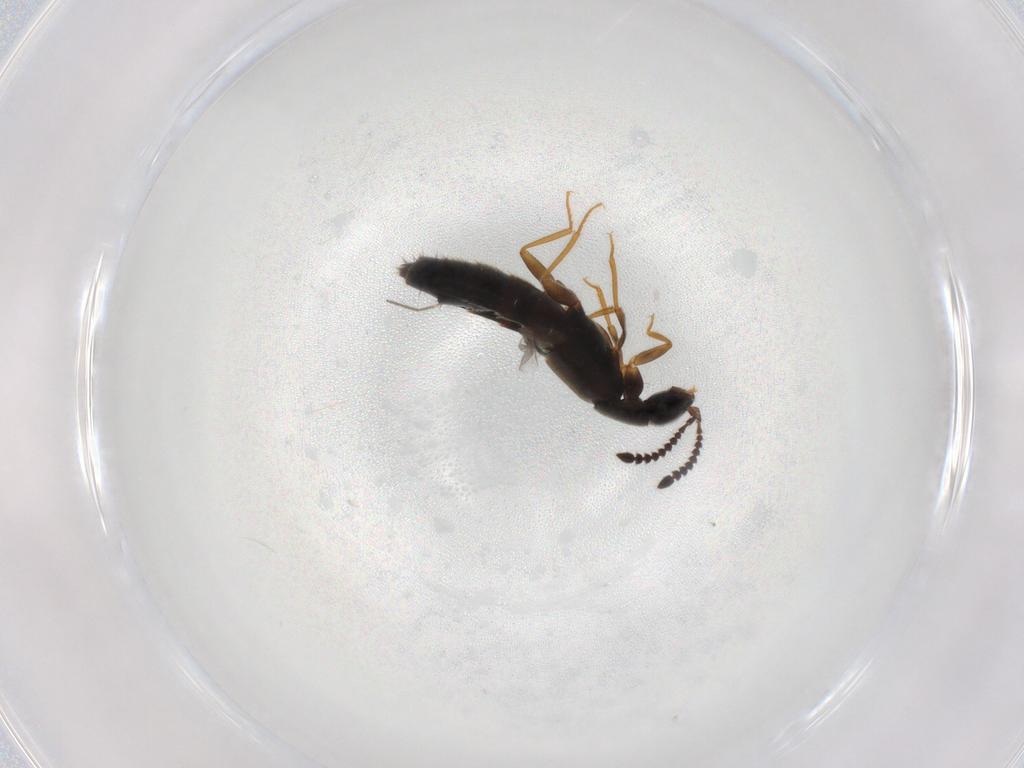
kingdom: Animalia
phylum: Arthropoda
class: Insecta
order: Coleoptera
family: Staphylinidae
